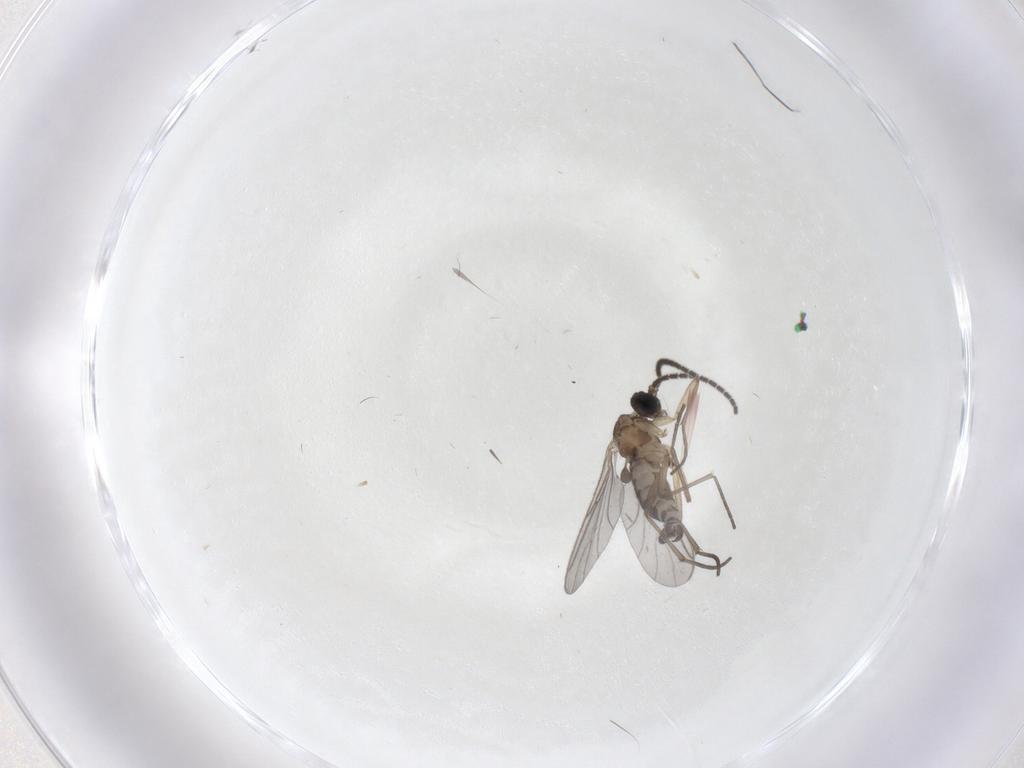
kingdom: Animalia
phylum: Arthropoda
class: Insecta
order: Diptera
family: Sciaridae
